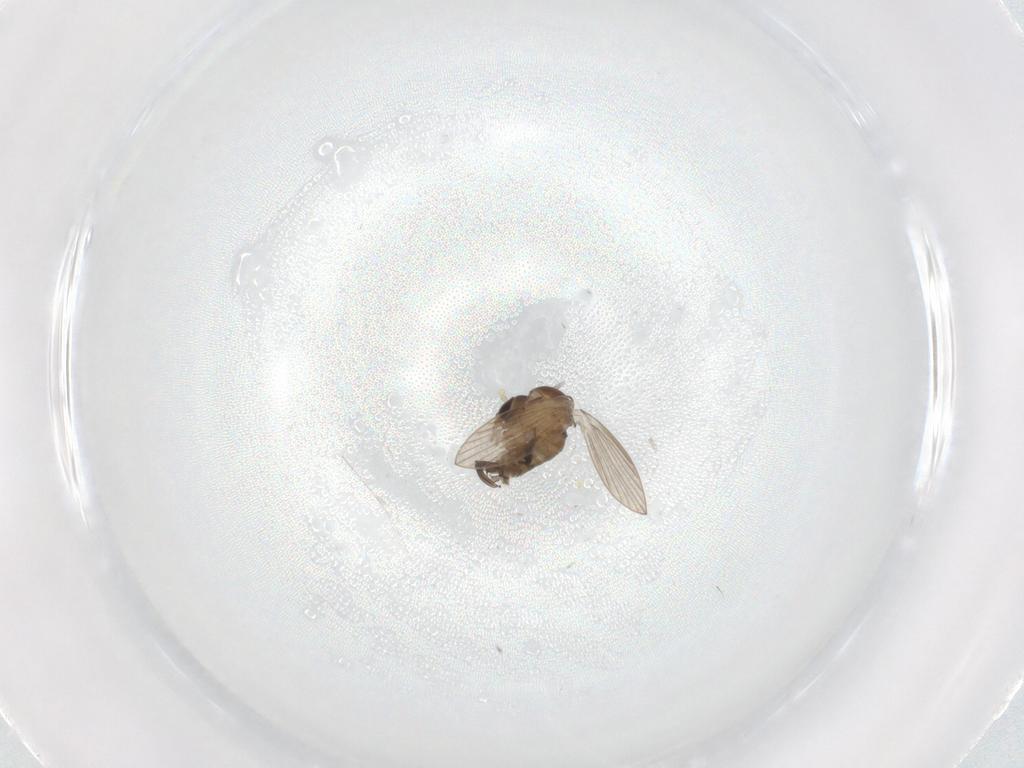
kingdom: Animalia
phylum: Arthropoda
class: Insecta
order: Diptera
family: Psychodidae
